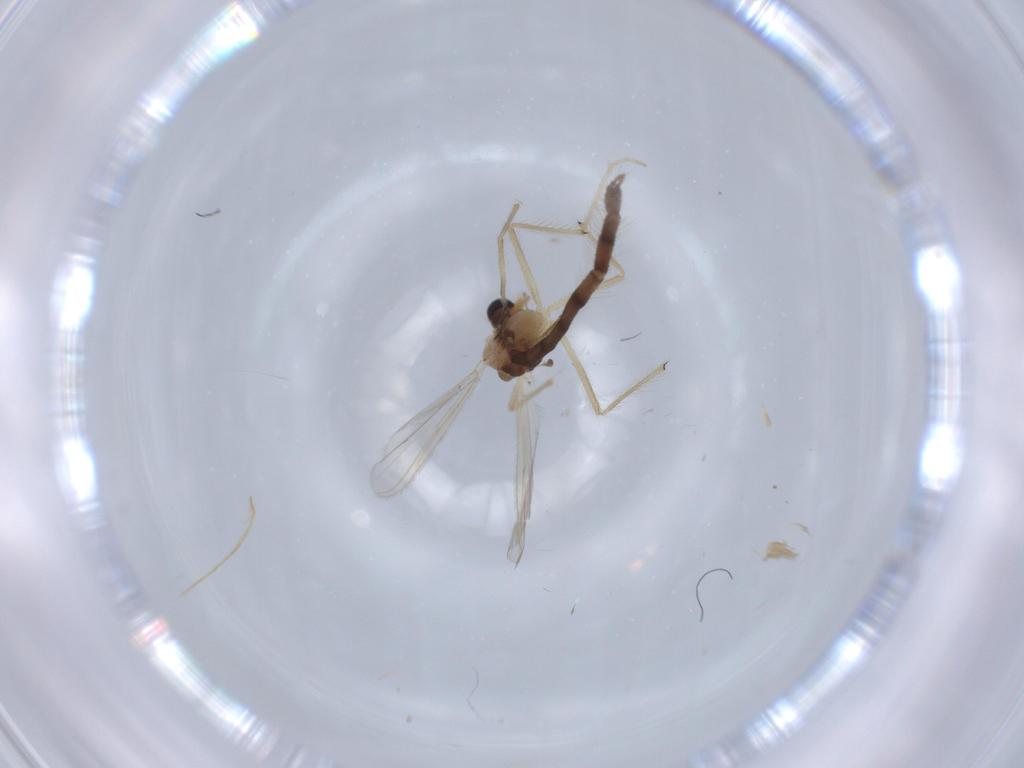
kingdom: Animalia
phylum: Arthropoda
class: Insecta
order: Diptera
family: Chironomidae
